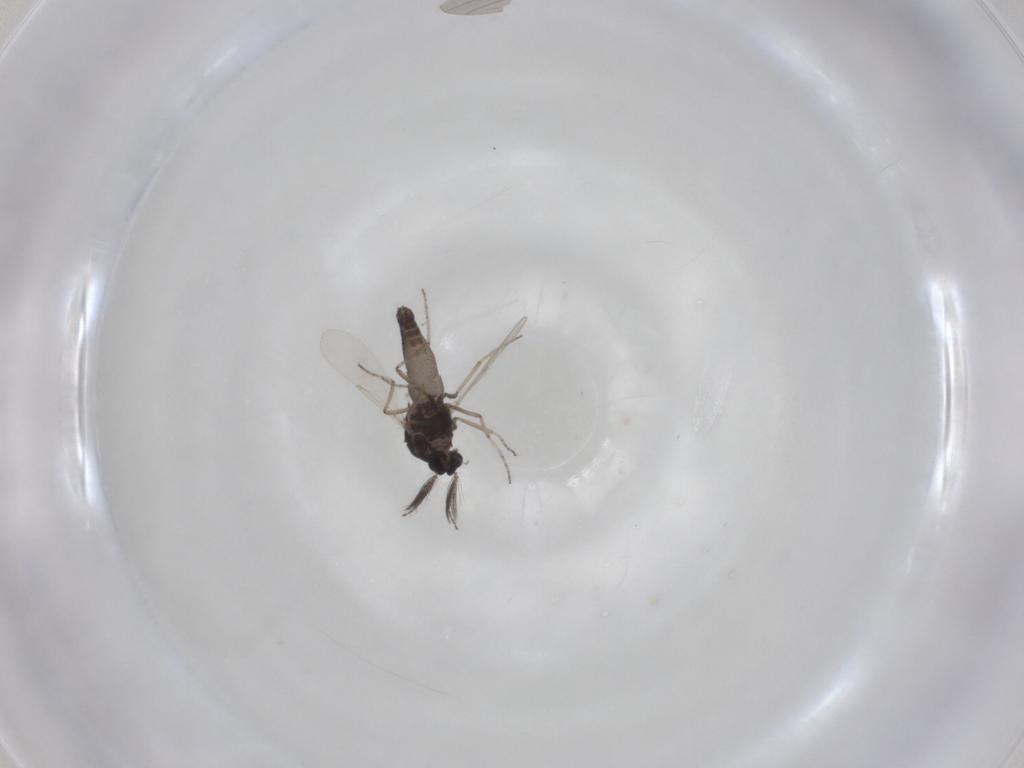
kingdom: Animalia
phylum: Arthropoda
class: Insecta
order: Diptera
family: Ceratopogonidae
